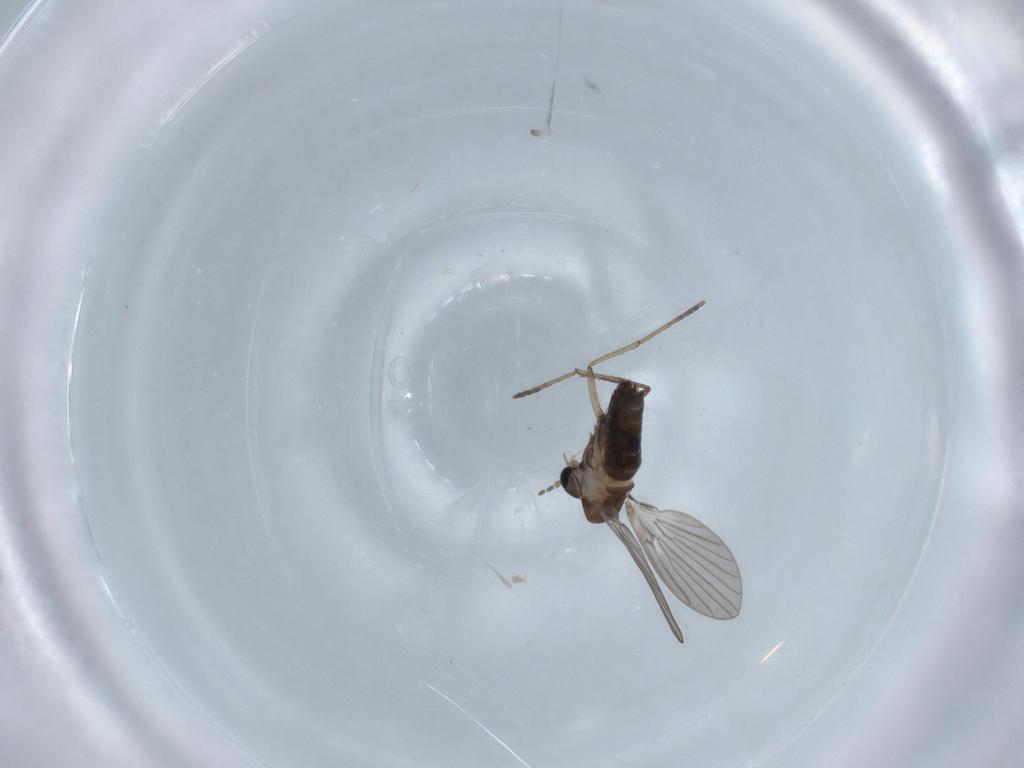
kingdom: Animalia
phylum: Arthropoda
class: Insecta
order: Diptera
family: Psychodidae
